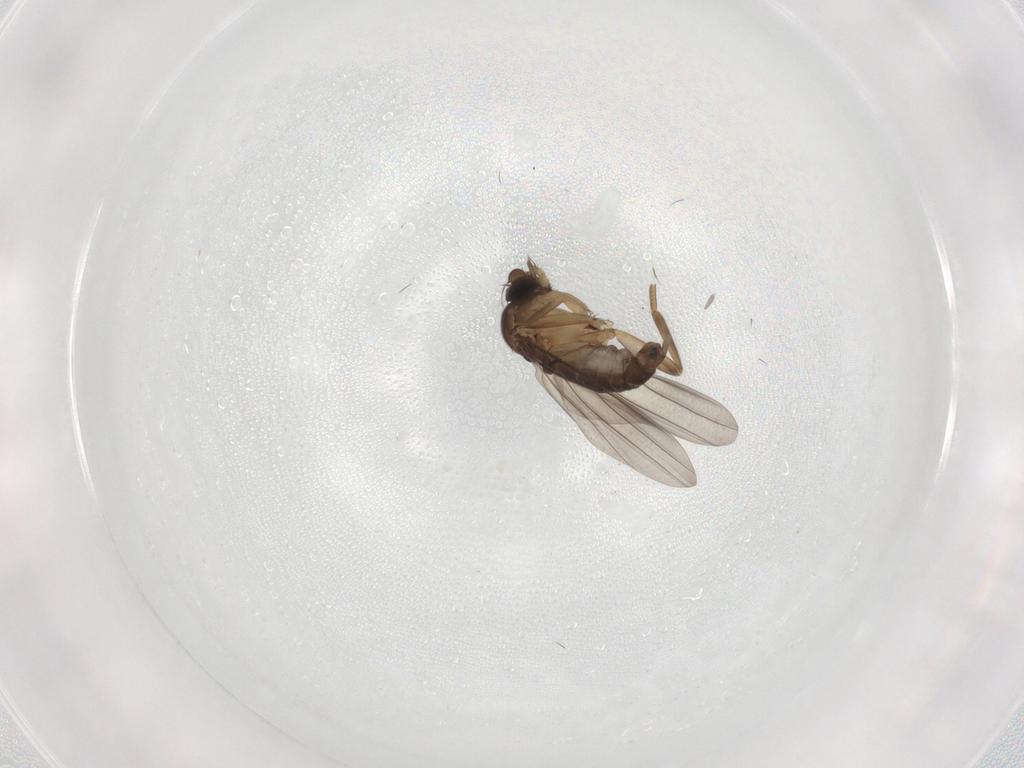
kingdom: Animalia
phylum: Arthropoda
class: Insecta
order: Diptera
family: Phoridae
